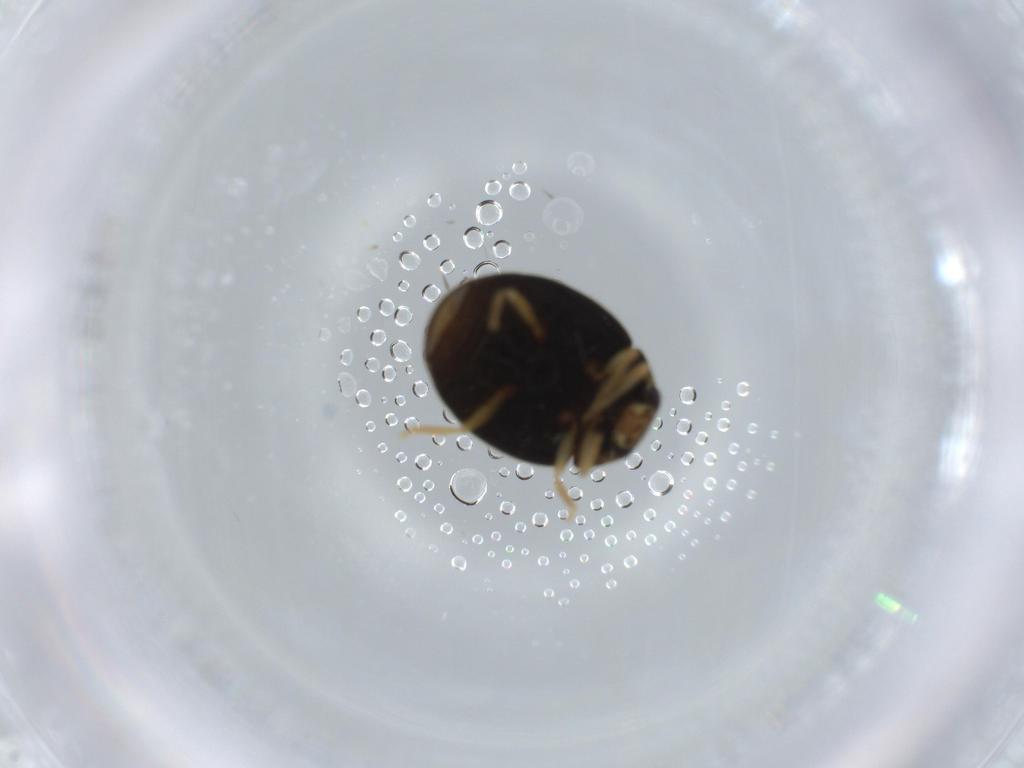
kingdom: Animalia
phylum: Arthropoda
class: Insecta
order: Coleoptera
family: Coccinellidae
